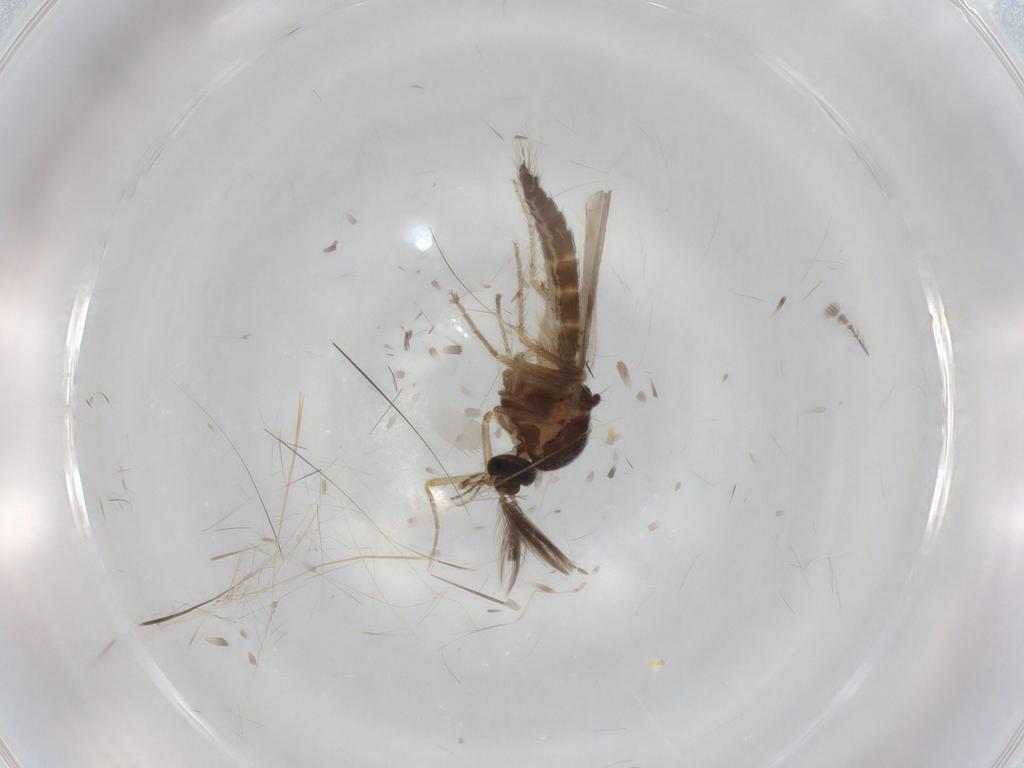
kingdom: Animalia
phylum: Arthropoda
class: Insecta
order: Diptera
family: Ceratopogonidae
